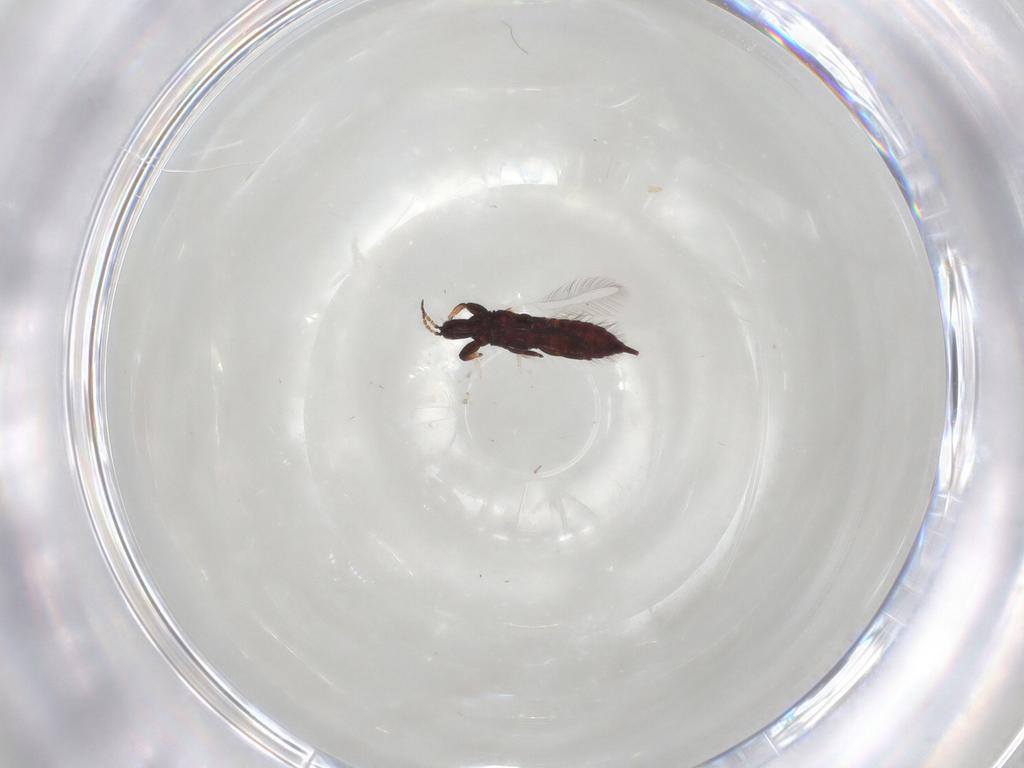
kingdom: Animalia
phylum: Arthropoda
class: Insecta
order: Thysanoptera
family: Phlaeothripidae
